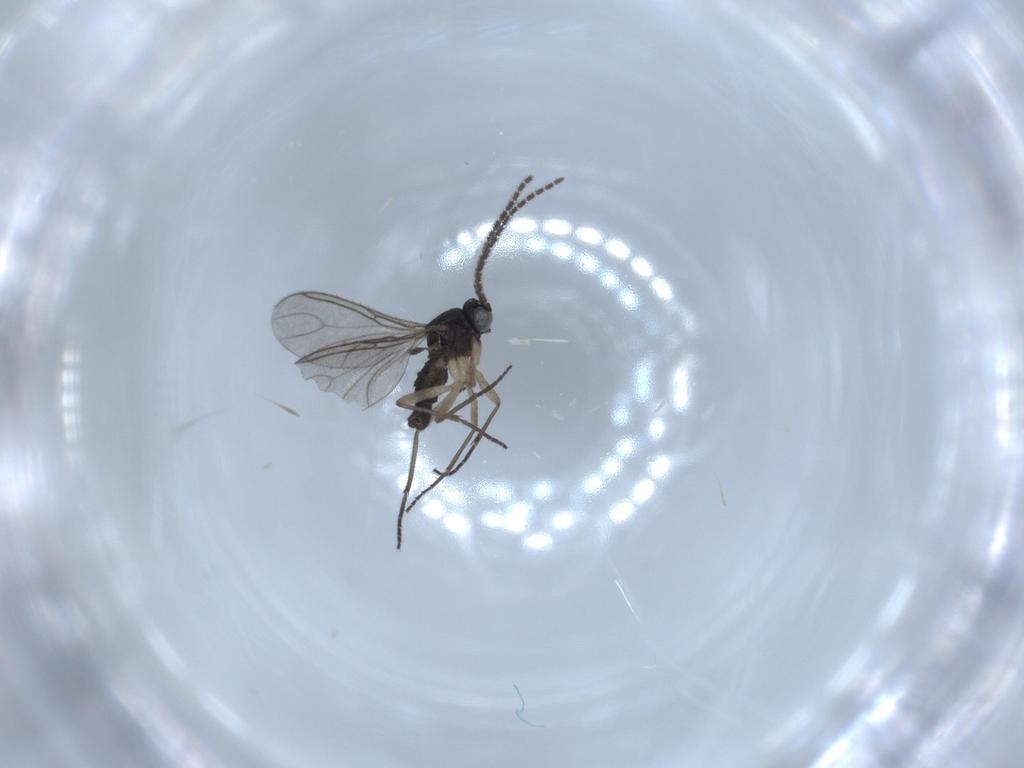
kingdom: Animalia
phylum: Arthropoda
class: Insecta
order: Diptera
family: Sciaridae
